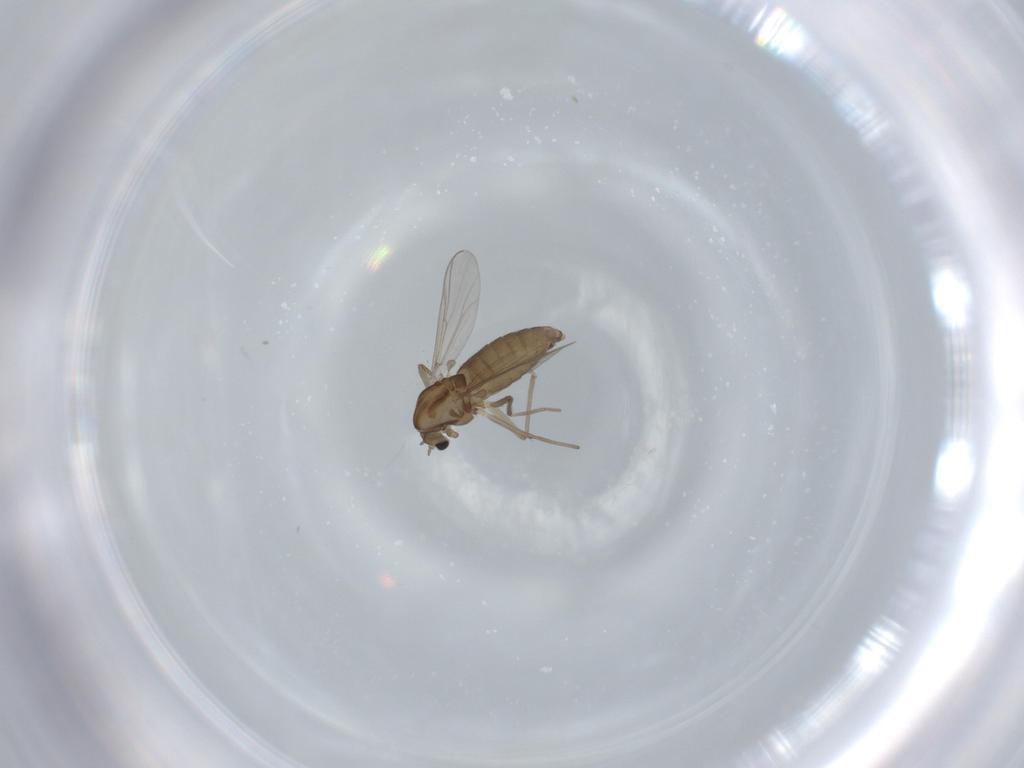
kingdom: Animalia
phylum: Arthropoda
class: Insecta
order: Diptera
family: Chironomidae
